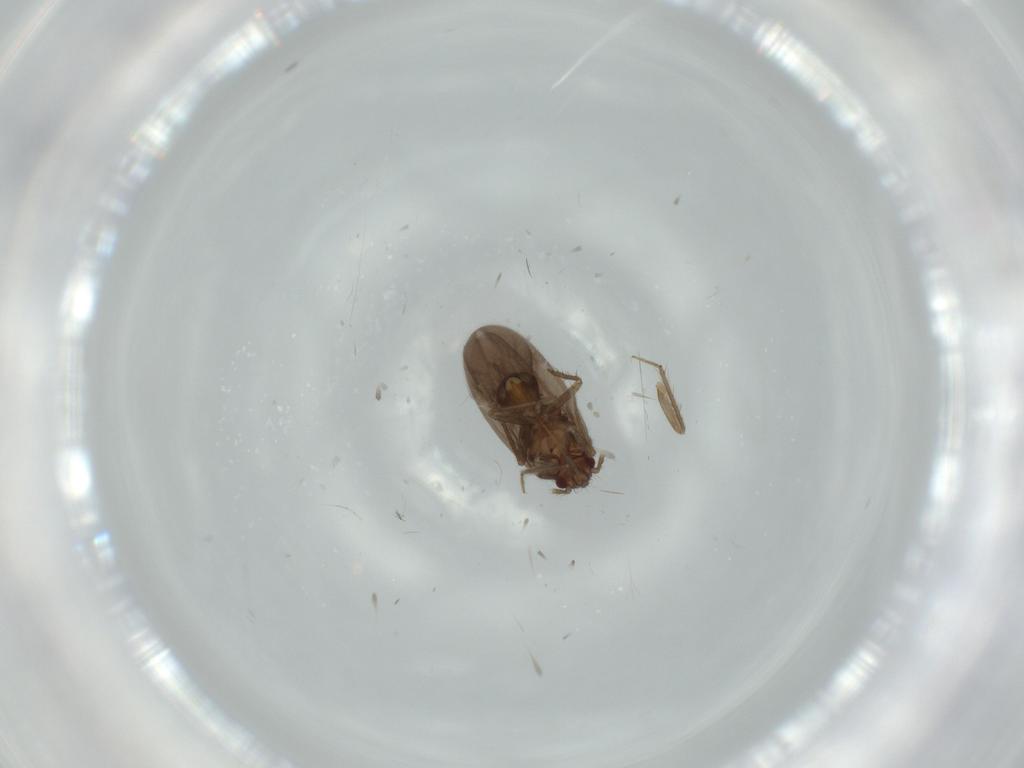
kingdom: Animalia
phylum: Arthropoda
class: Insecta
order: Hemiptera
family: Ceratocombidae
